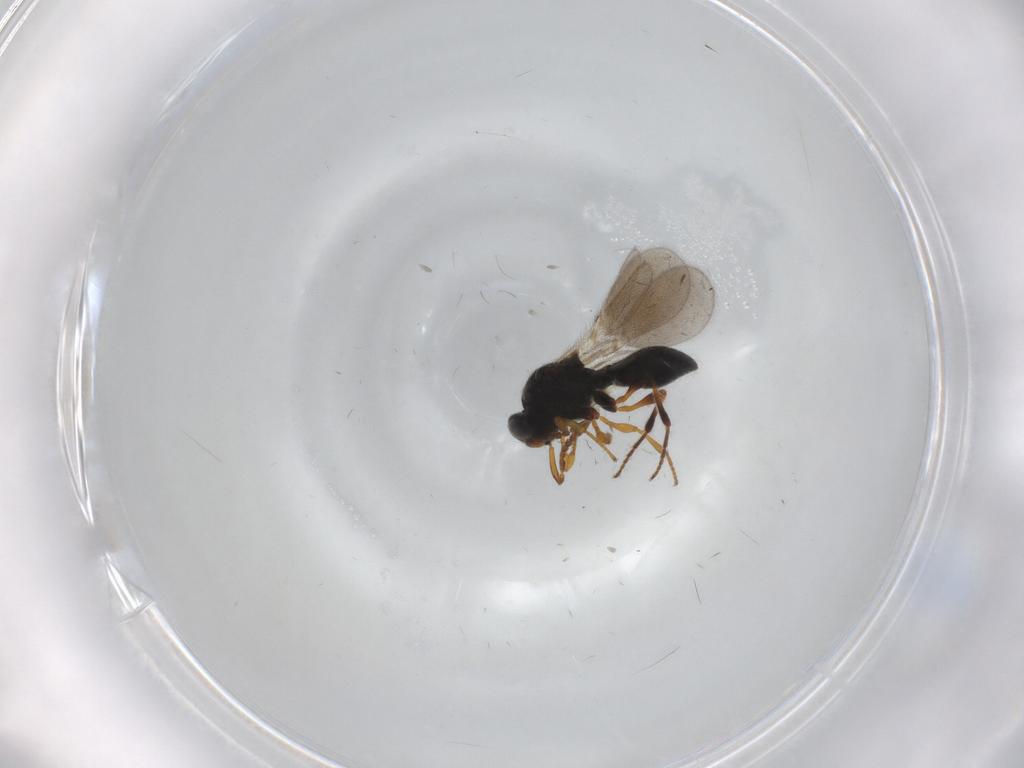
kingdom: Animalia
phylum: Arthropoda
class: Insecta
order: Hymenoptera
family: Platygastridae
